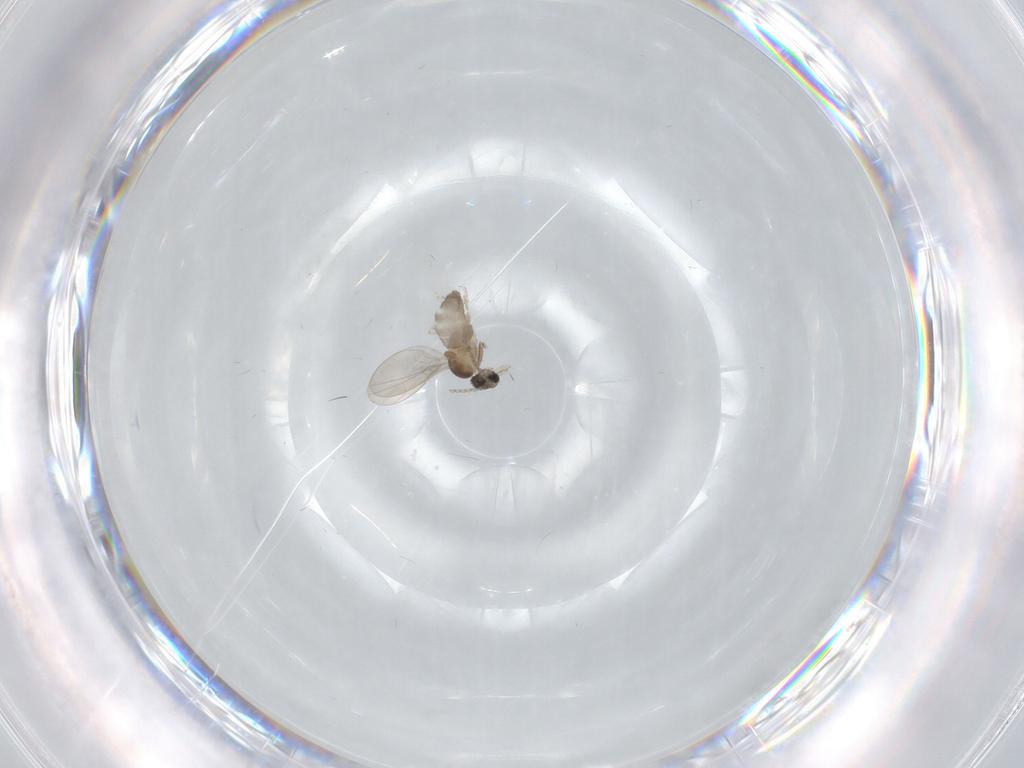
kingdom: Animalia
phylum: Arthropoda
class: Insecta
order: Diptera
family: Cecidomyiidae
